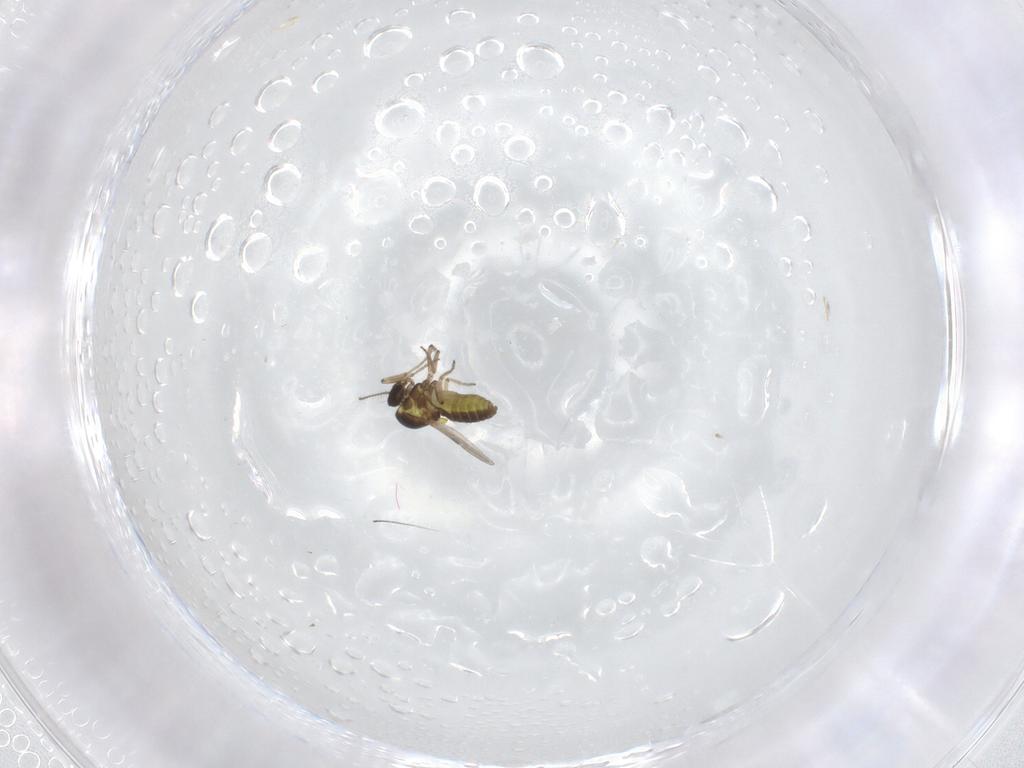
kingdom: Animalia
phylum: Arthropoda
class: Insecta
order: Diptera
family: Ceratopogonidae
